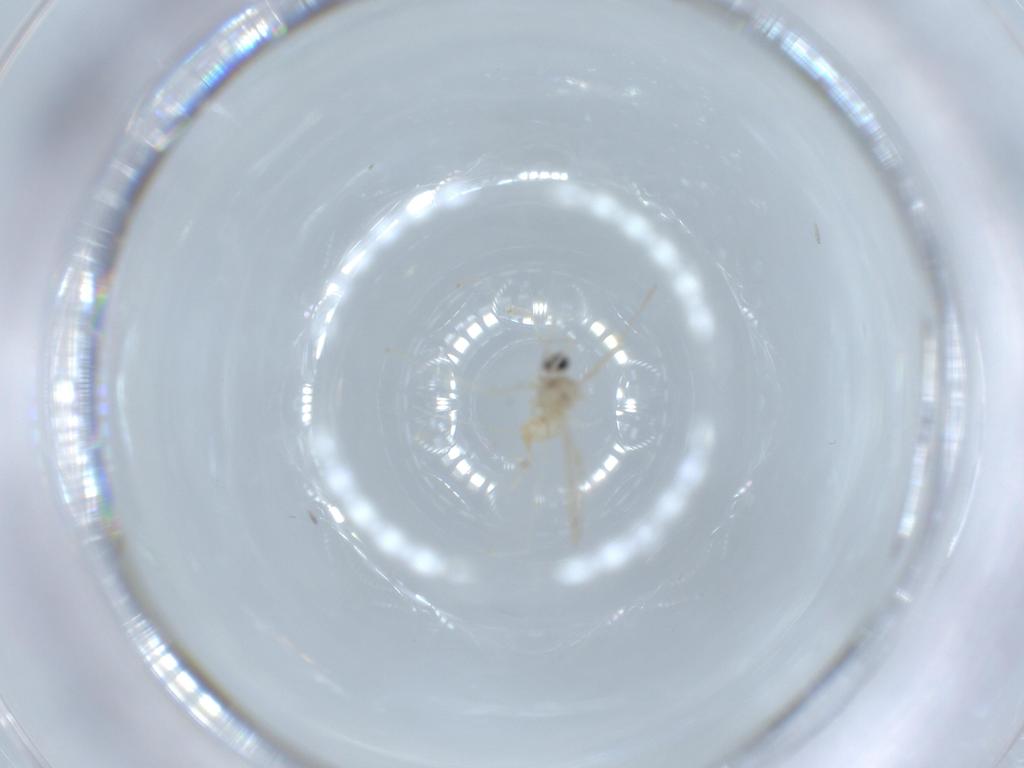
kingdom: Animalia
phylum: Arthropoda
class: Insecta
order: Diptera
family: Cecidomyiidae
